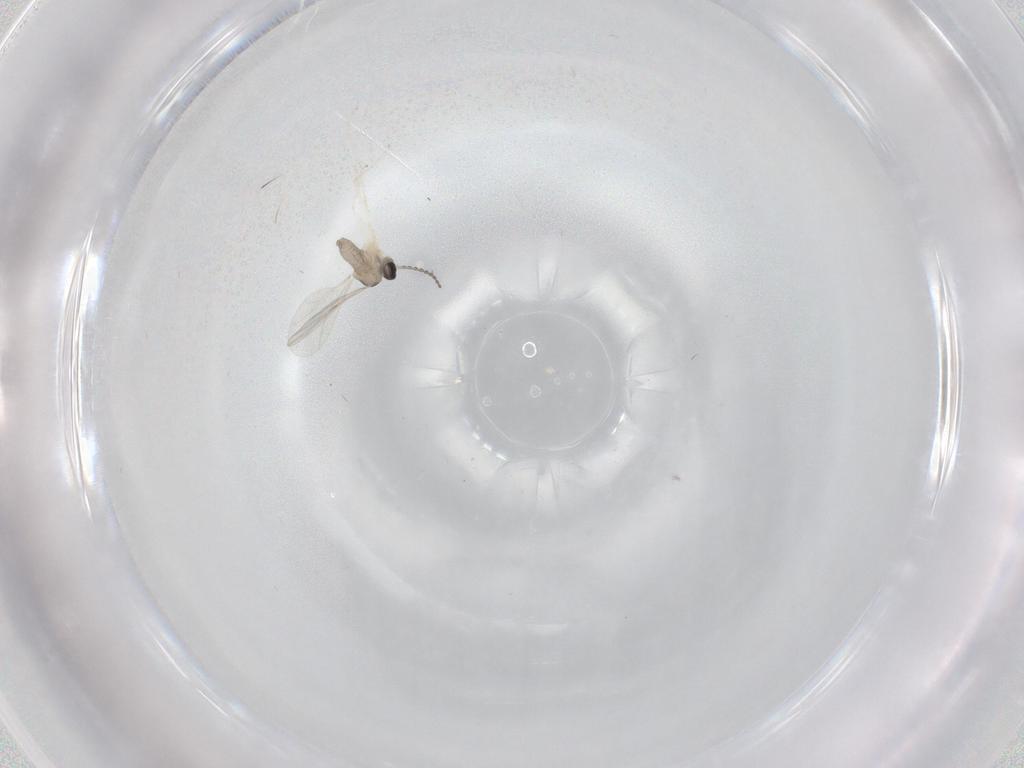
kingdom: Animalia
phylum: Arthropoda
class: Insecta
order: Diptera
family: Cecidomyiidae
